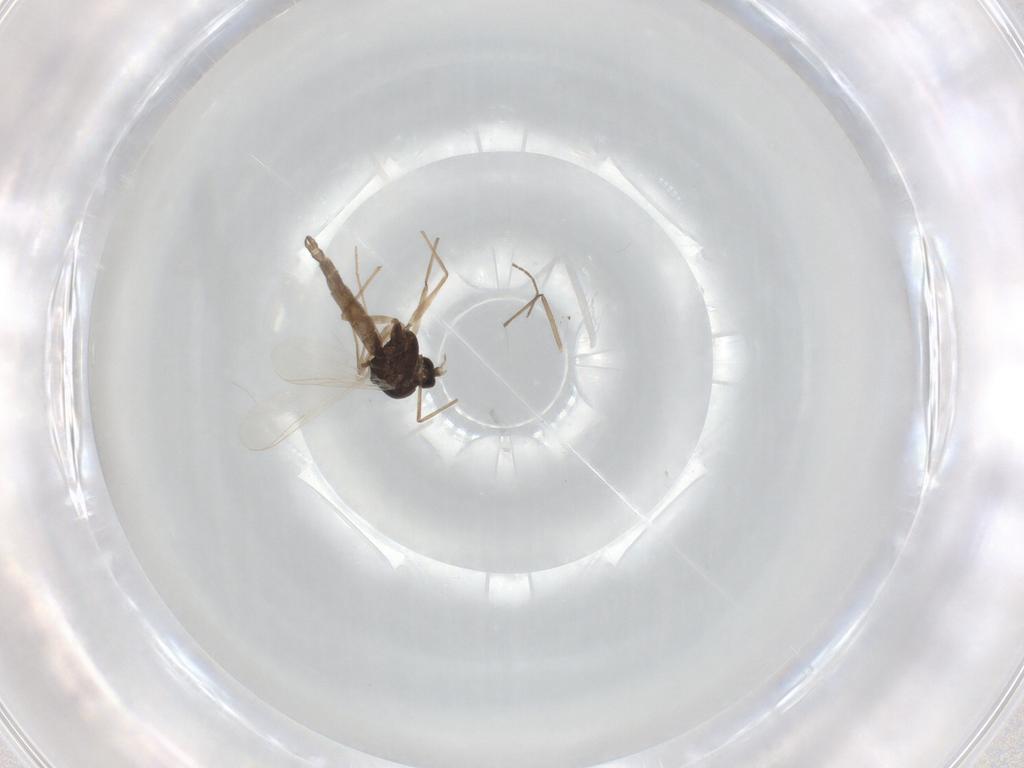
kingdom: Animalia
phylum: Arthropoda
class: Insecta
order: Diptera
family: Chironomidae
